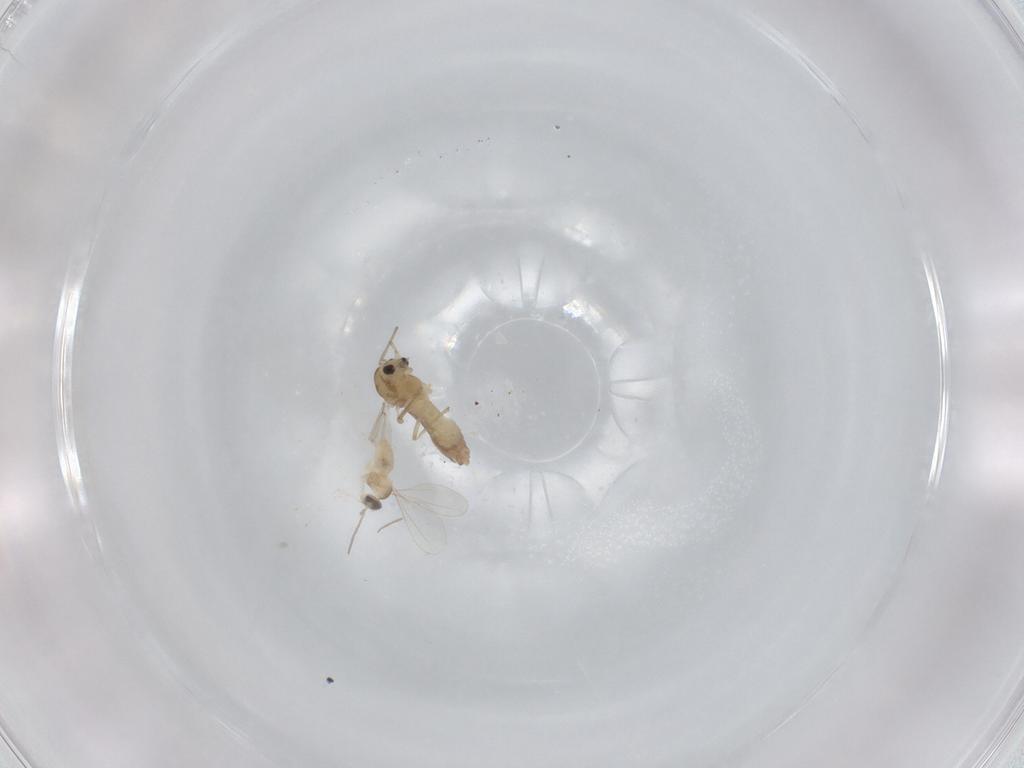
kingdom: Animalia
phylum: Arthropoda
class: Insecta
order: Diptera
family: Chironomidae
